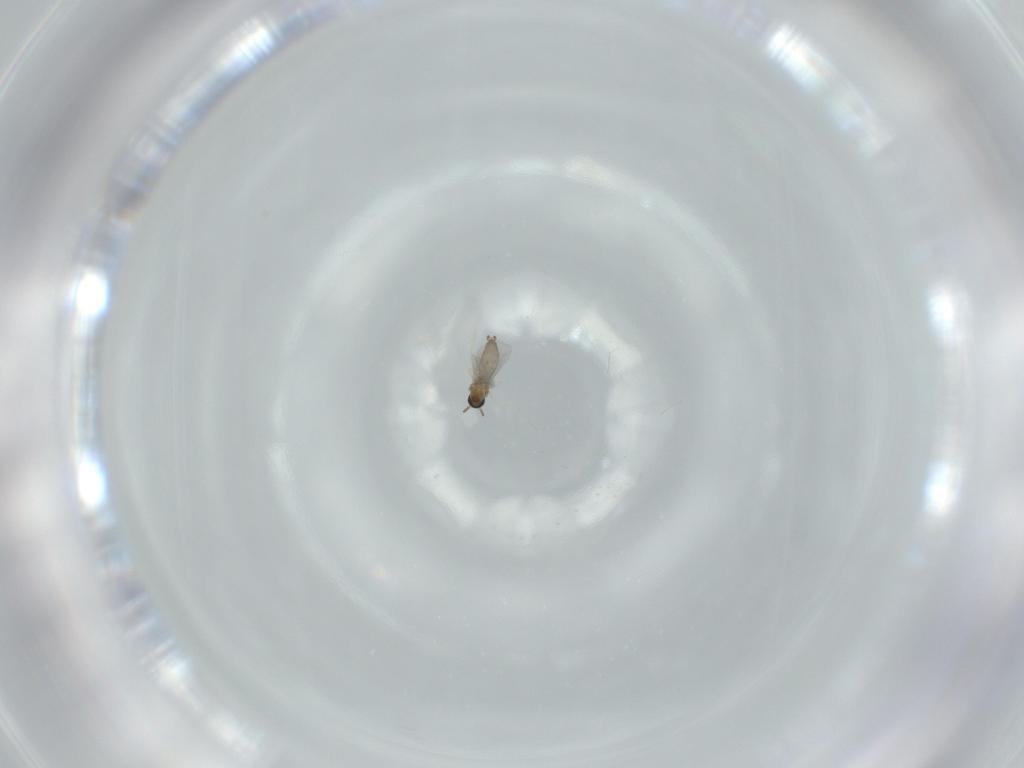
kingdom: Animalia
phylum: Arthropoda
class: Insecta
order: Diptera
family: Cecidomyiidae
